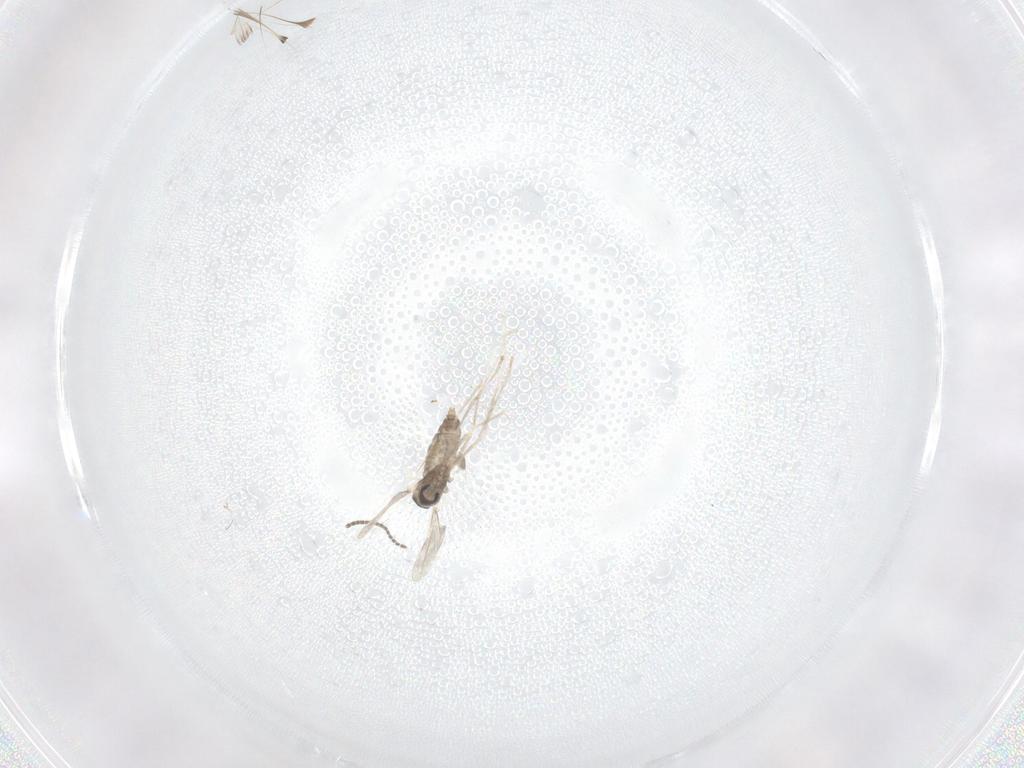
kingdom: Animalia
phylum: Arthropoda
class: Insecta
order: Diptera
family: Cecidomyiidae
